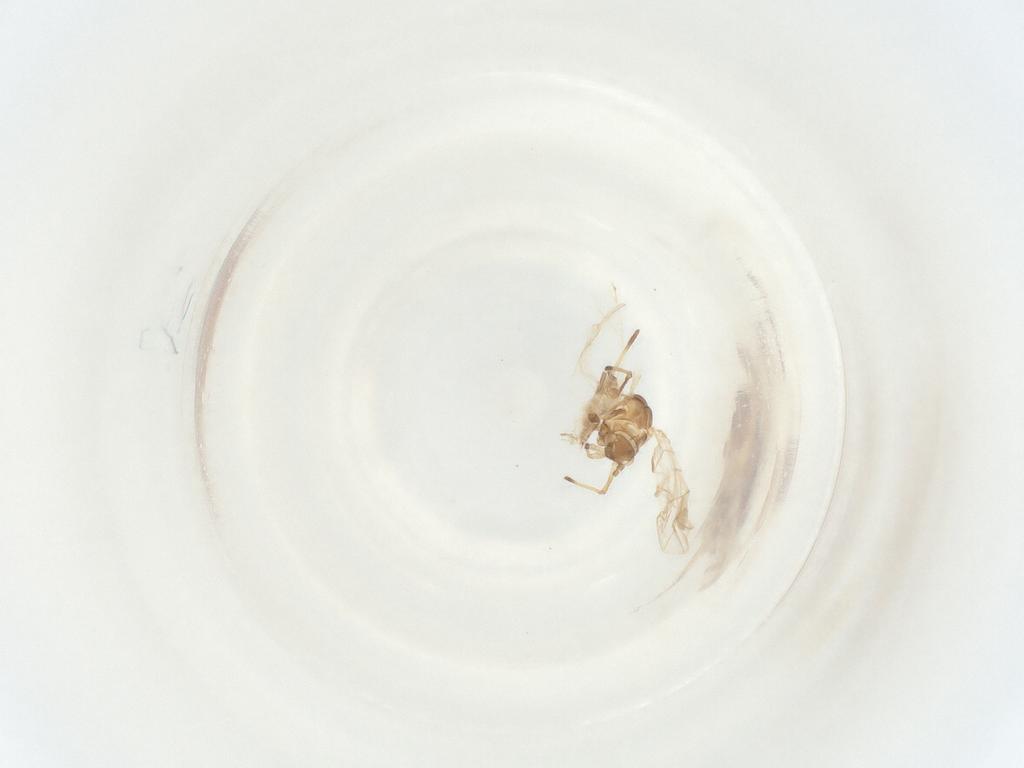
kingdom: Animalia
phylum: Arthropoda
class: Insecta
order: Hemiptera
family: Aphididae
